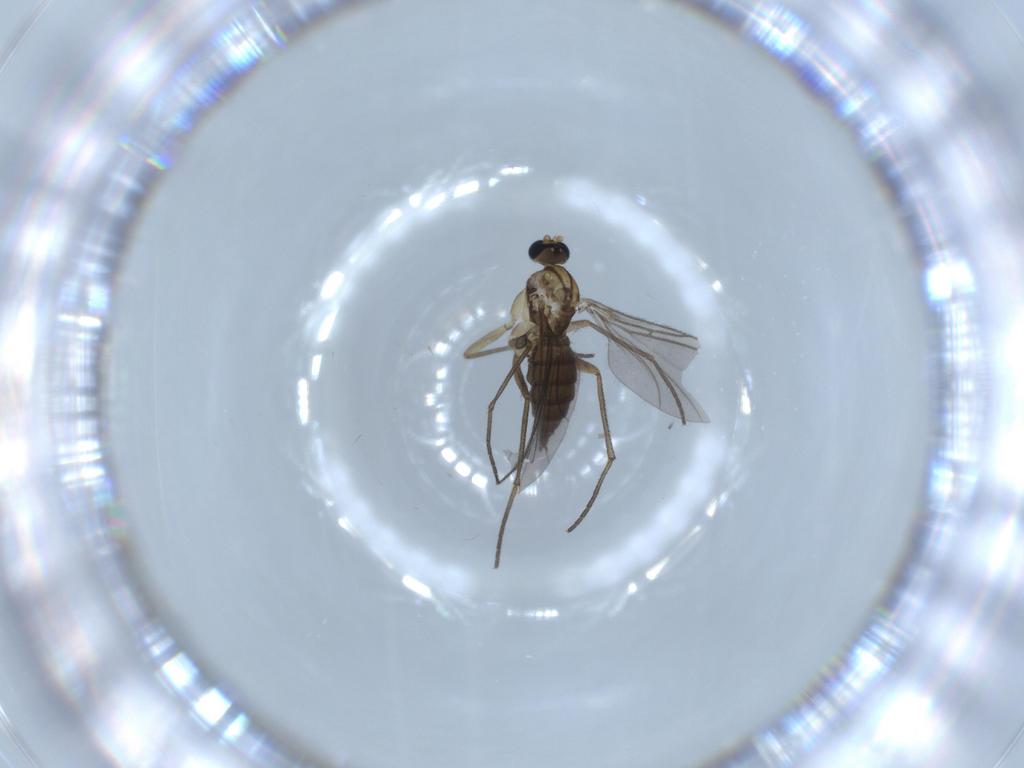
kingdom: Animalia
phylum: Arthropoda
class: Insecta
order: Diptera
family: Sciaridae
